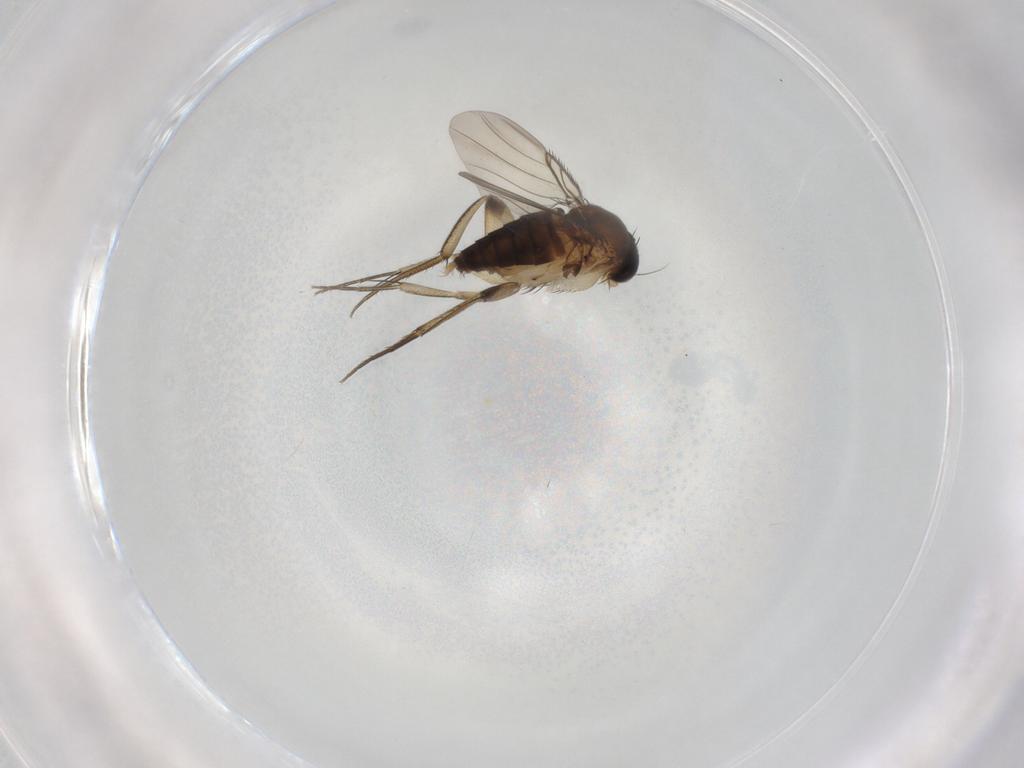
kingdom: Animalia
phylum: Arthropoda
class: Insecta
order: Diptera
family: Phoridae
